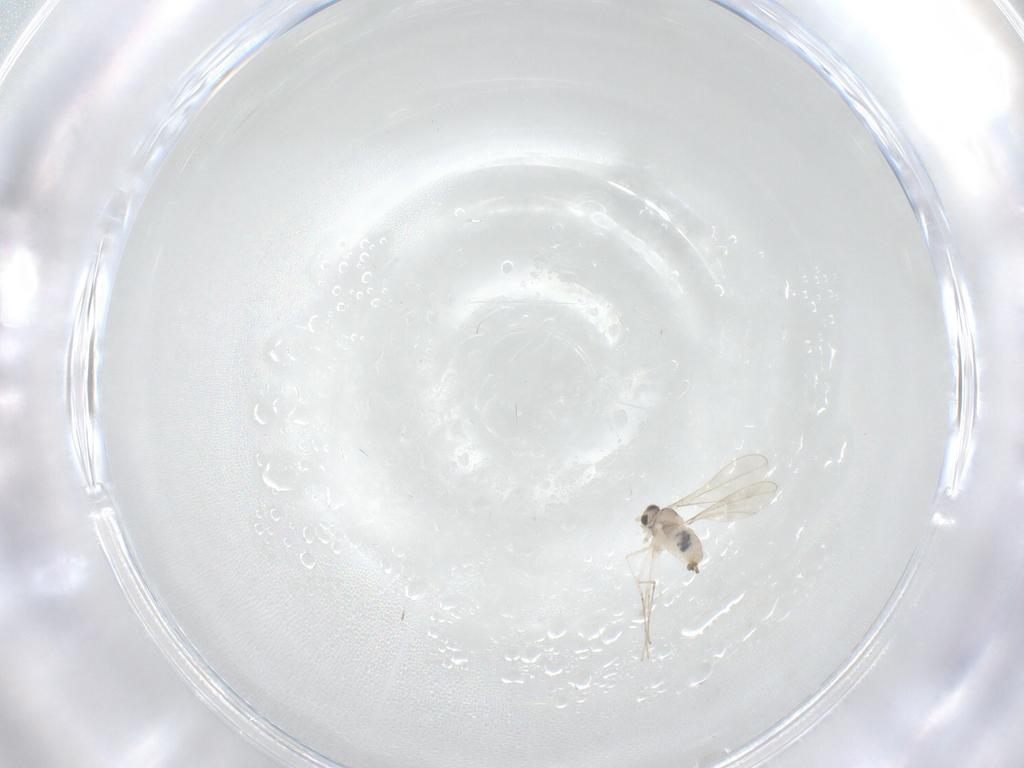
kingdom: Animalia
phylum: Arthropoda
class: Insecta
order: Diptera
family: Cecidomyiidae
